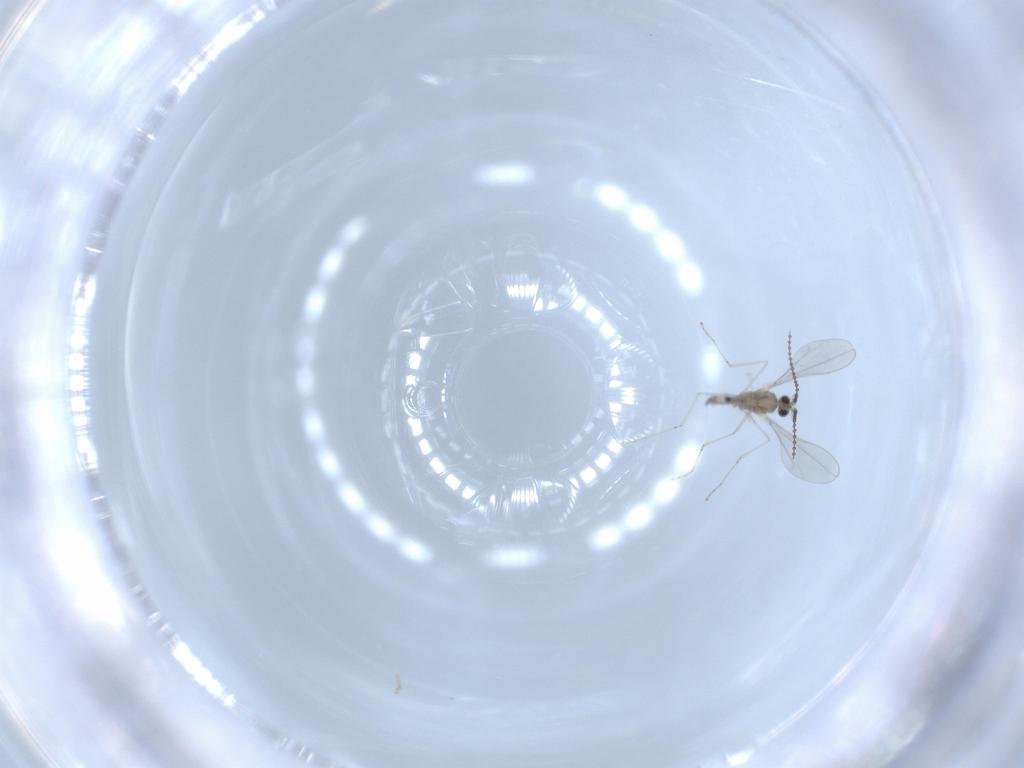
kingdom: Animalia
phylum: Arthropoda
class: Insecta
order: Diptera
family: Cecidomyiidae
